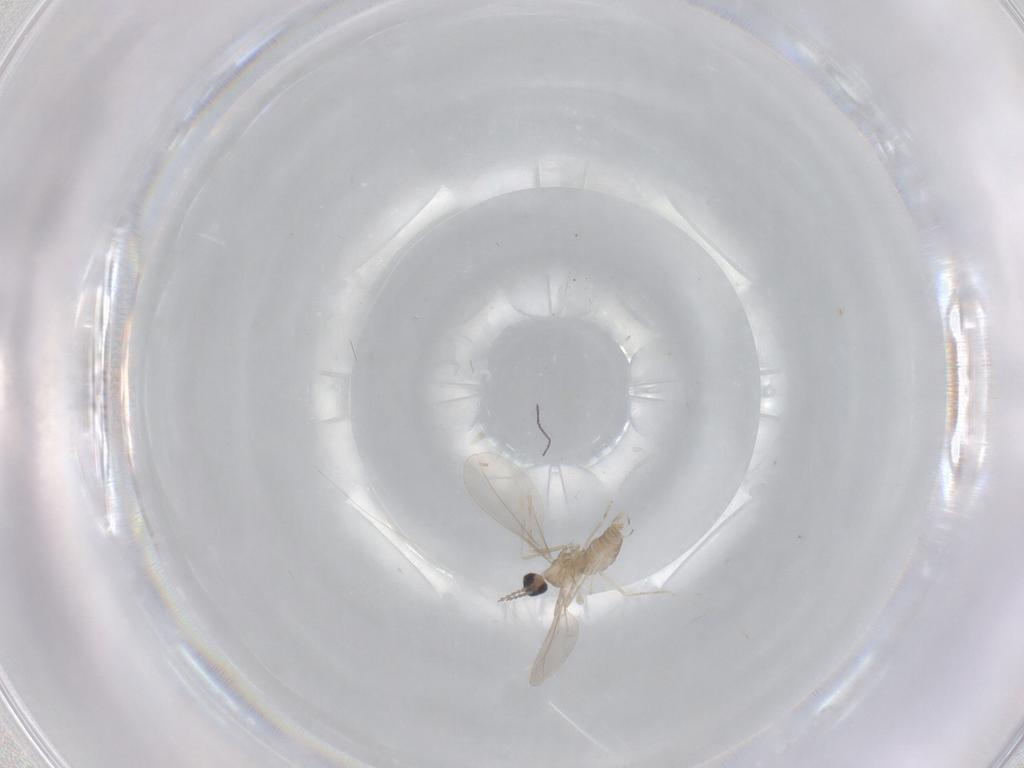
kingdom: Animalia
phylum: Arthropoda
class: Insecta
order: Diptera
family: Cecidomyiidae
